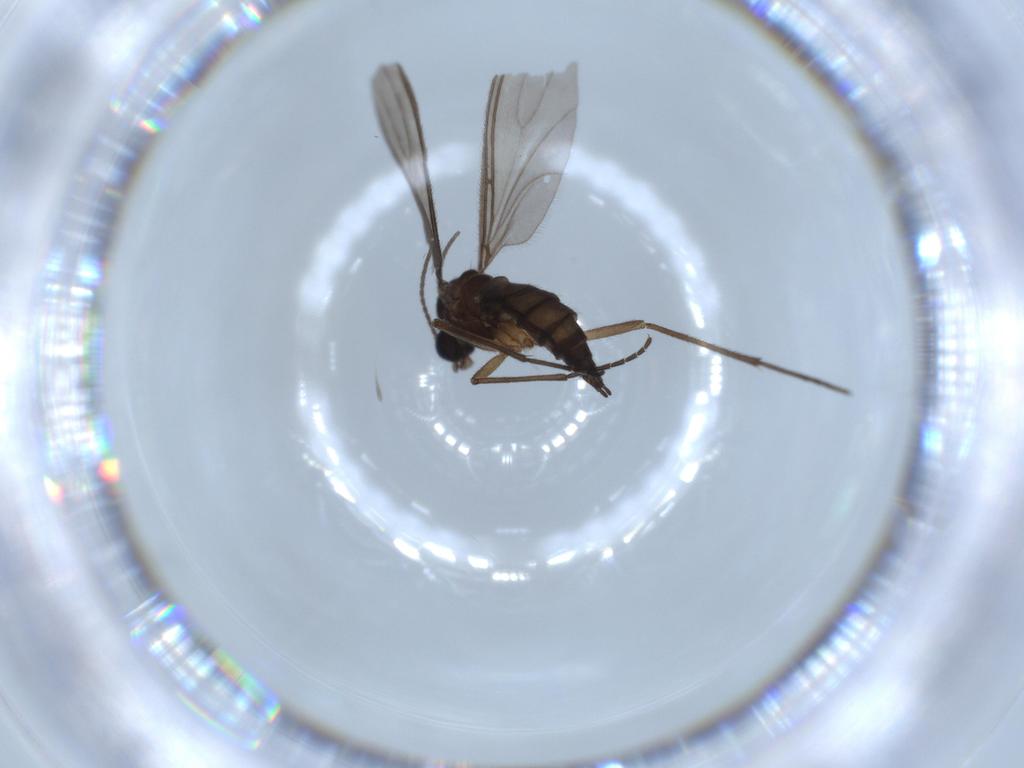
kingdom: Animalia
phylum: Arthropoda
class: Insecta
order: Diptera
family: Sciaridae
